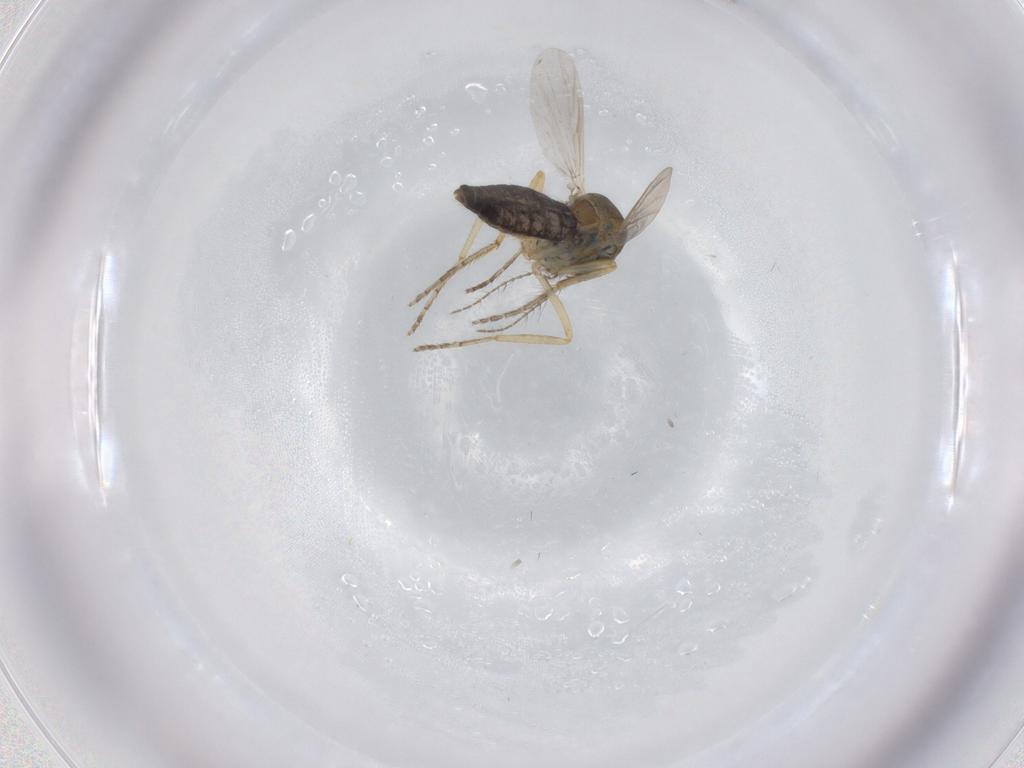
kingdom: Animalia
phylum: Arthropoda
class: Insecta
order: Diptera
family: Ceratopogonidae
